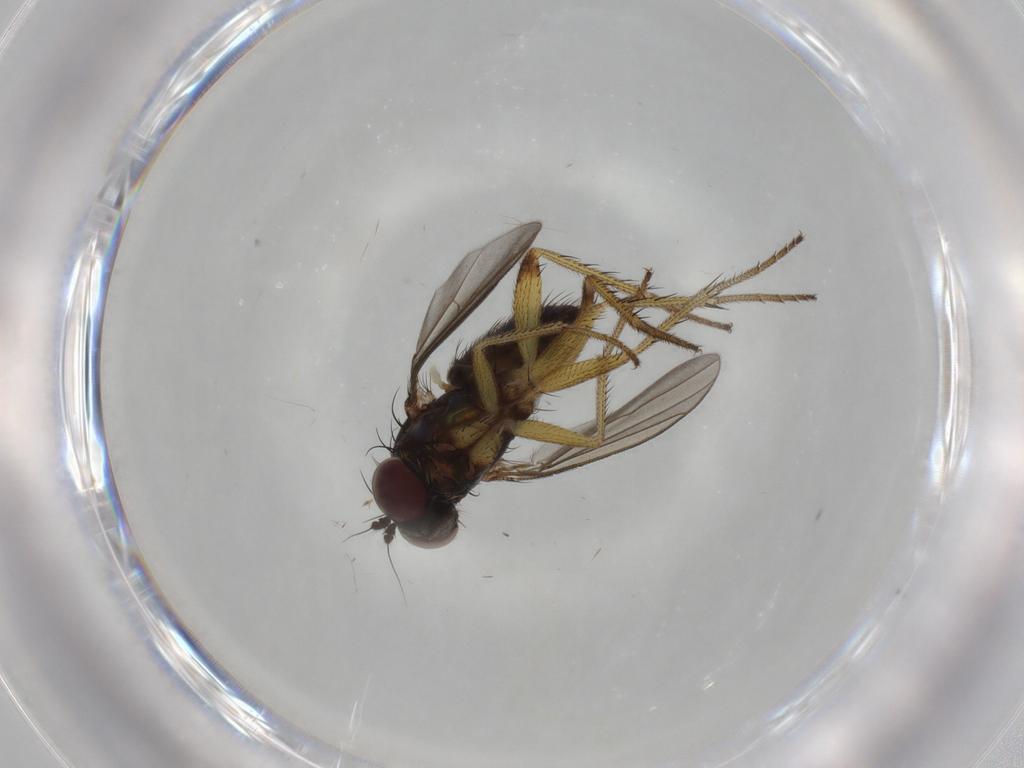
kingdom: Animalia
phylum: Arthropoda
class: Insecta
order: Diptera
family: Dolichopodidae
